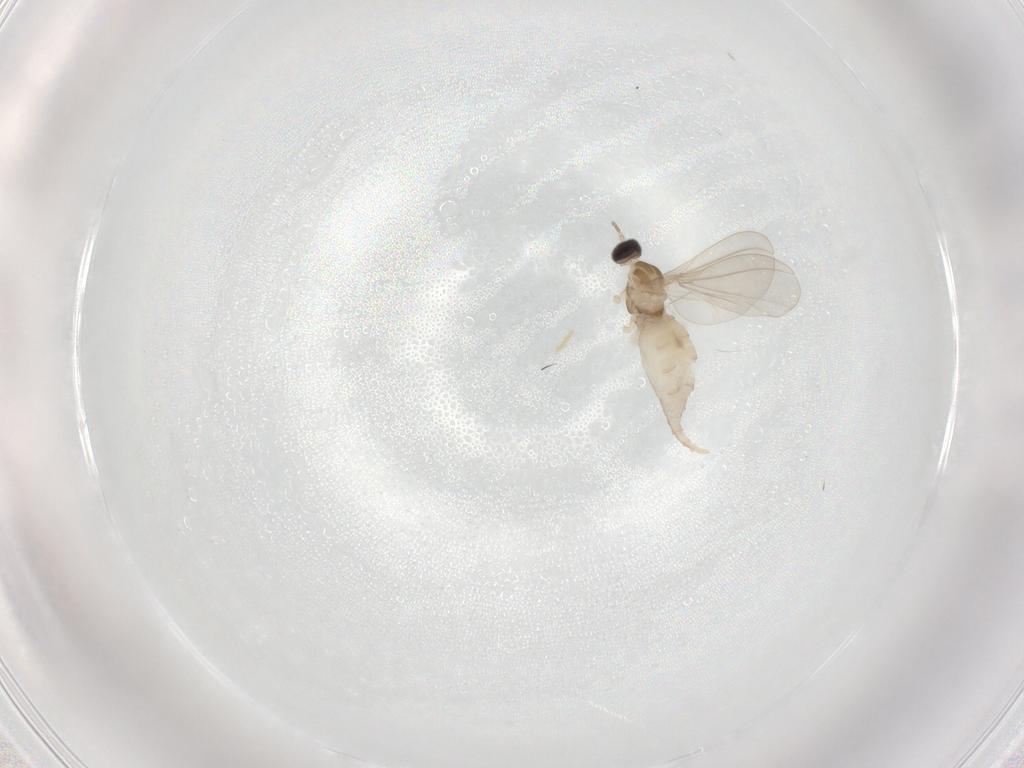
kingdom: Animalia
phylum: Arthropoda
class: Insecta
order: Diptera
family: Cecidomyiidae
